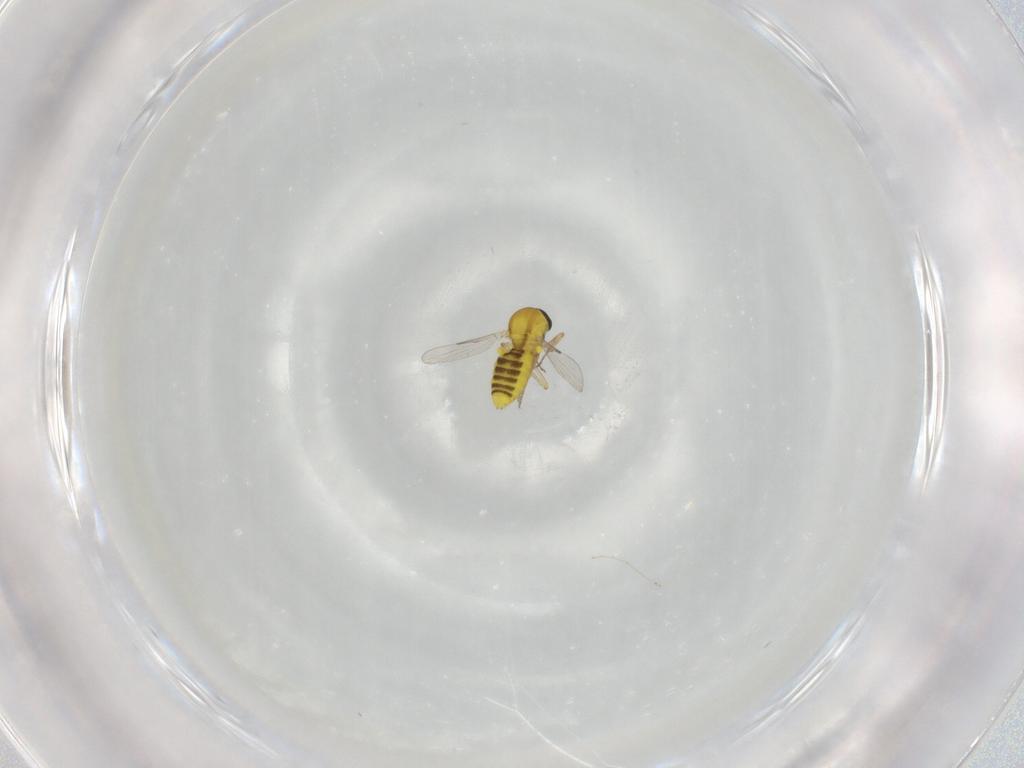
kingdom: Animalia
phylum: Arthropoda
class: Insecta
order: Diptera
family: Ceratopogonidae
